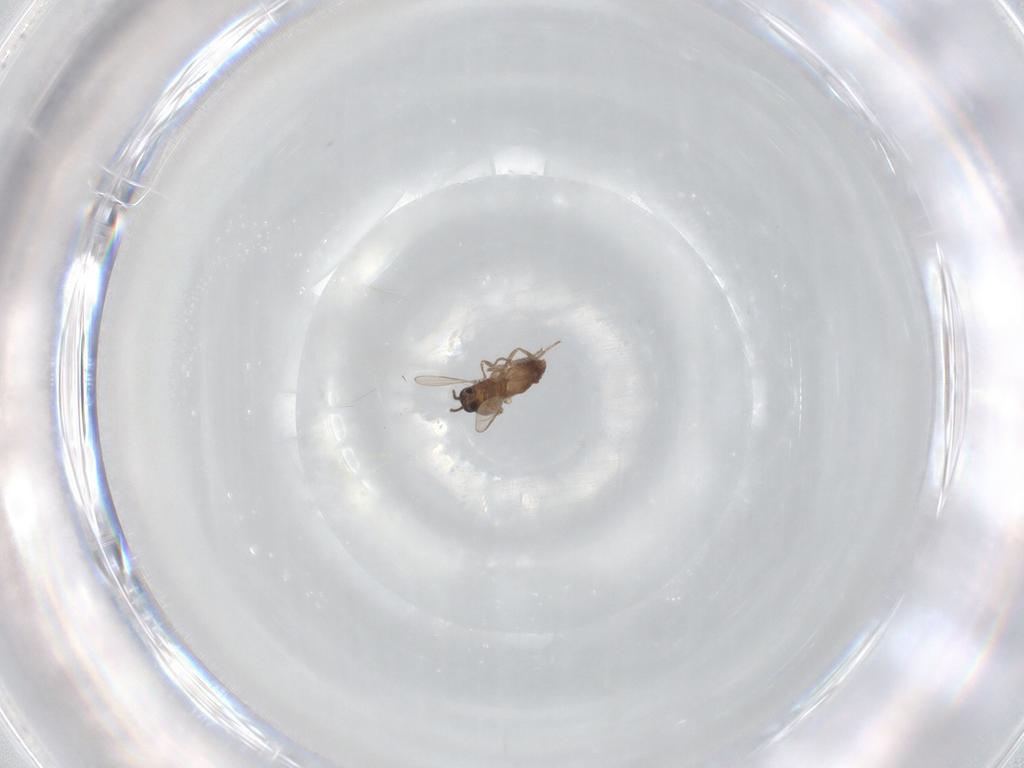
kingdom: Animalia
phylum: Arthropoda
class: Insecta
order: Diptera
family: Ceratopogonidae
